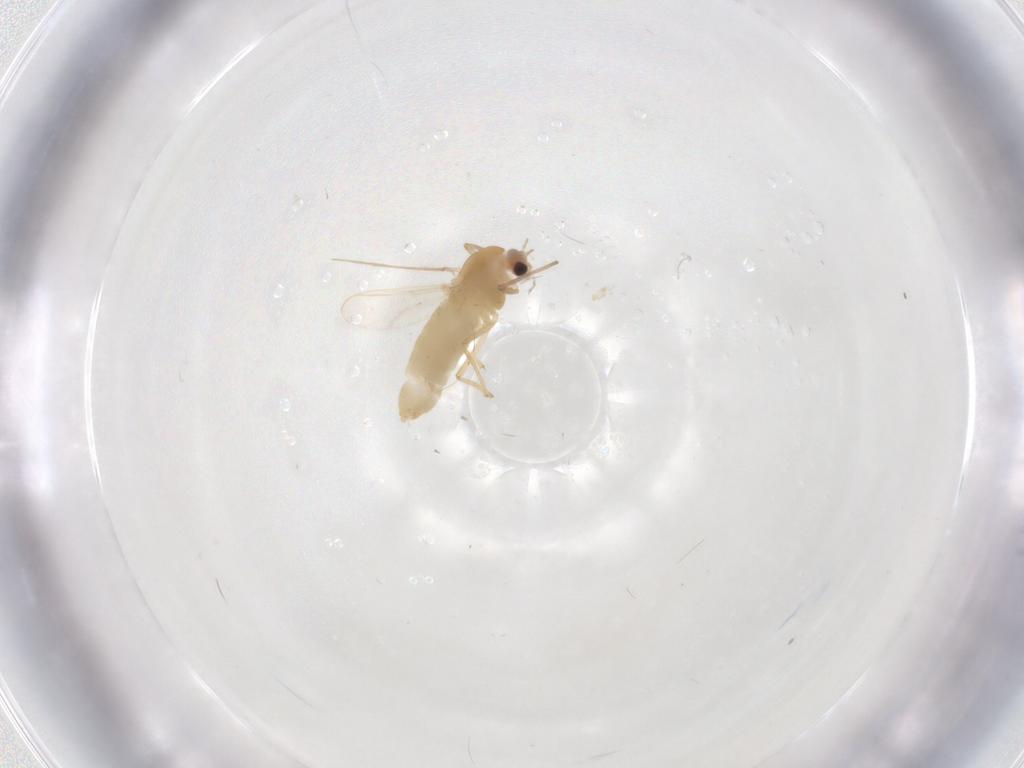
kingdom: Animalia
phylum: Arthropoda
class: Insecta
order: Diptera
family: Chironomidae
